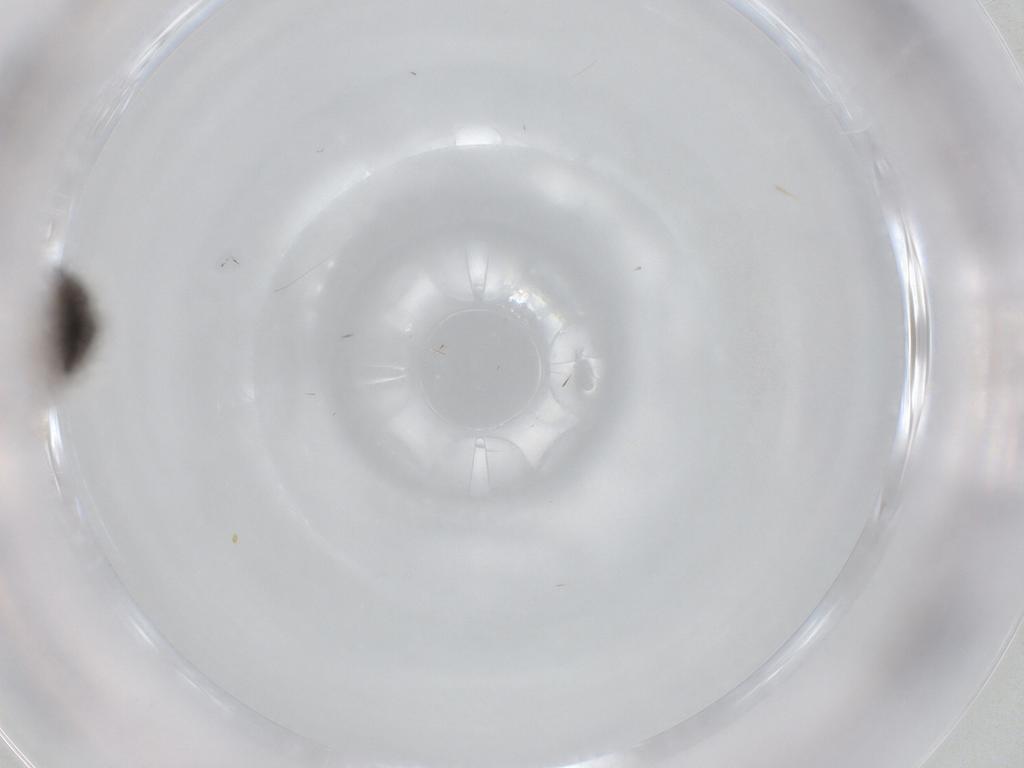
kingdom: Animalia
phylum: Arthropoda
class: Insecta
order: Diptera
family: Sphaeroceridae
